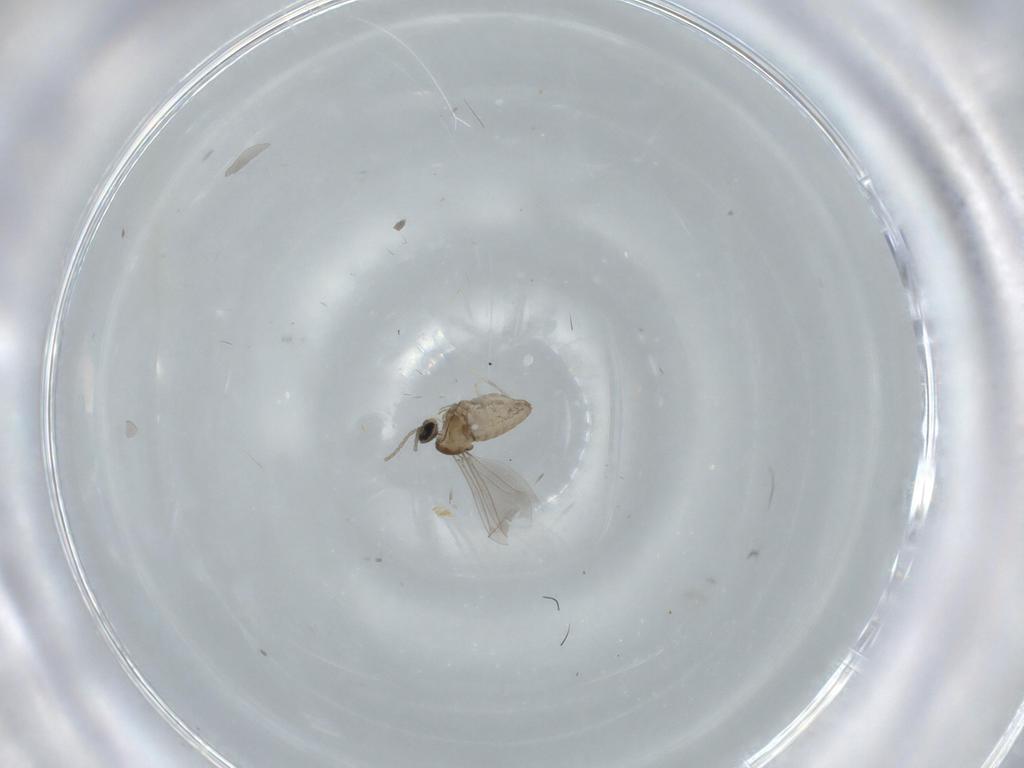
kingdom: Animalia
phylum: Arthropoda
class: Insecta
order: Diptera
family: Cecidomyiidae
